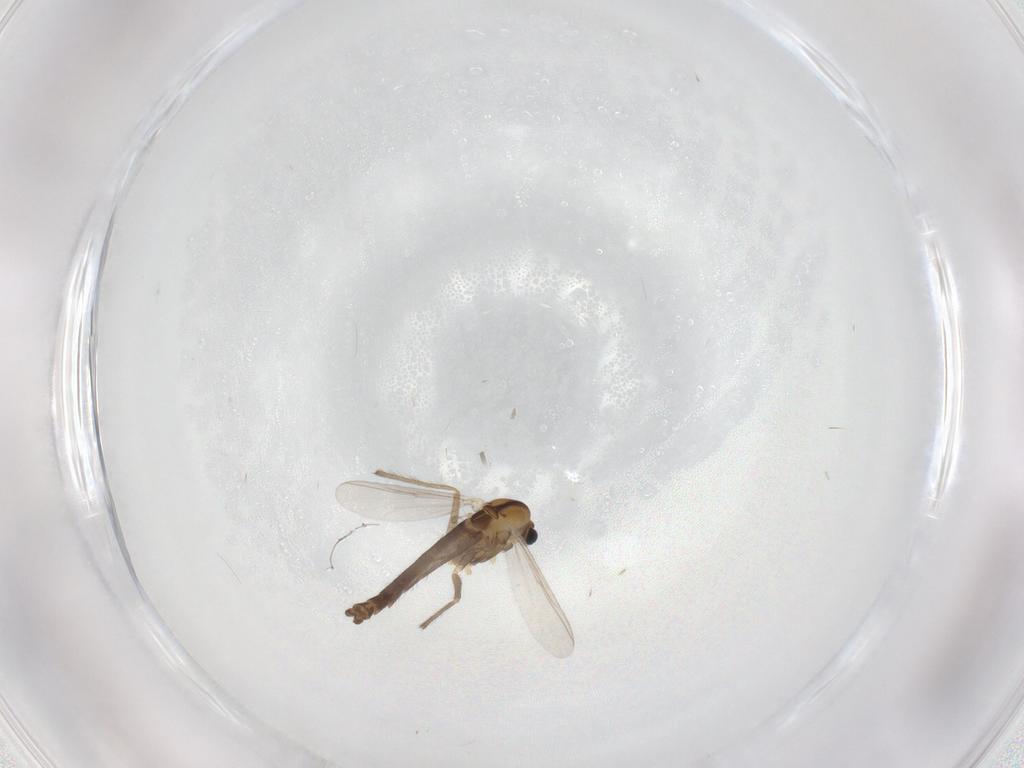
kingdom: Animalia
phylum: Arthropoda
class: Insecta
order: Diptera
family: Chironomidae
